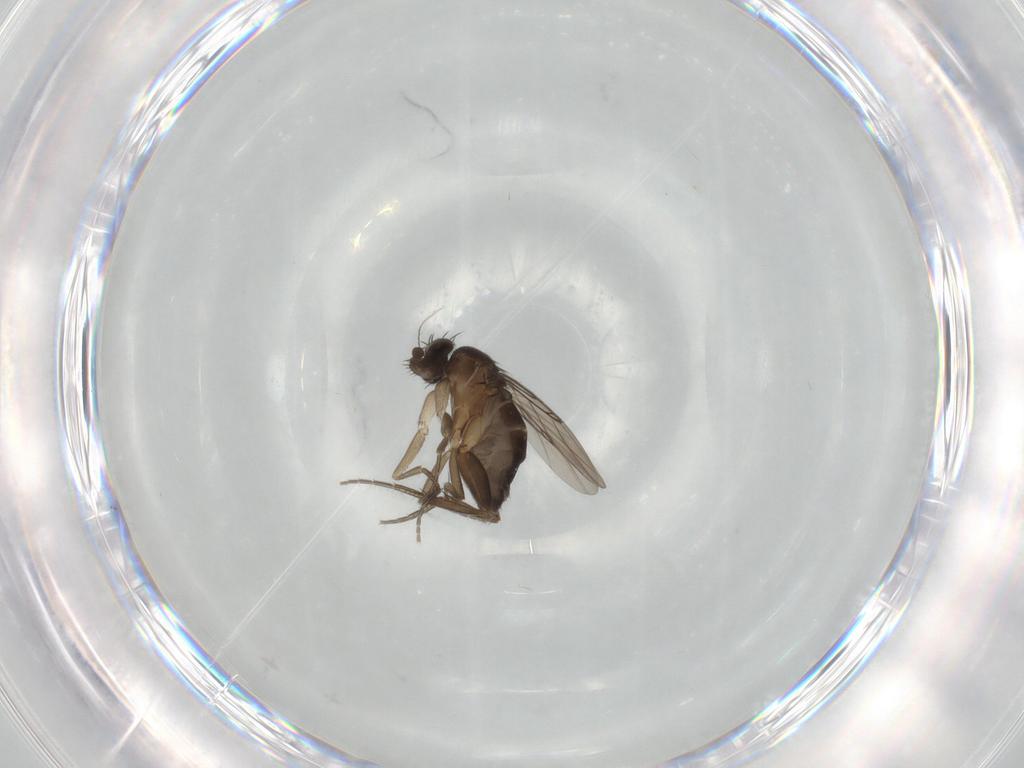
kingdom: Animalia
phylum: Arthropoda
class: Insecta
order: Diptera
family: Phoridae
